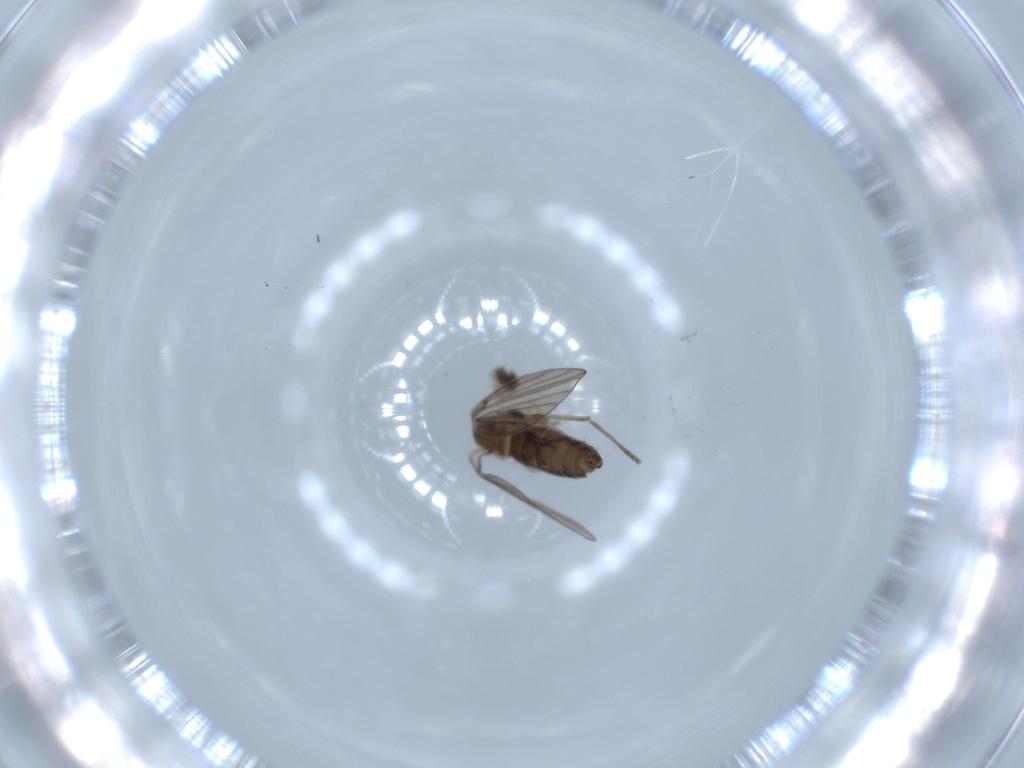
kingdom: Animalia
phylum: Arthropoda
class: Insecta
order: Diptera
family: Psychodidae
